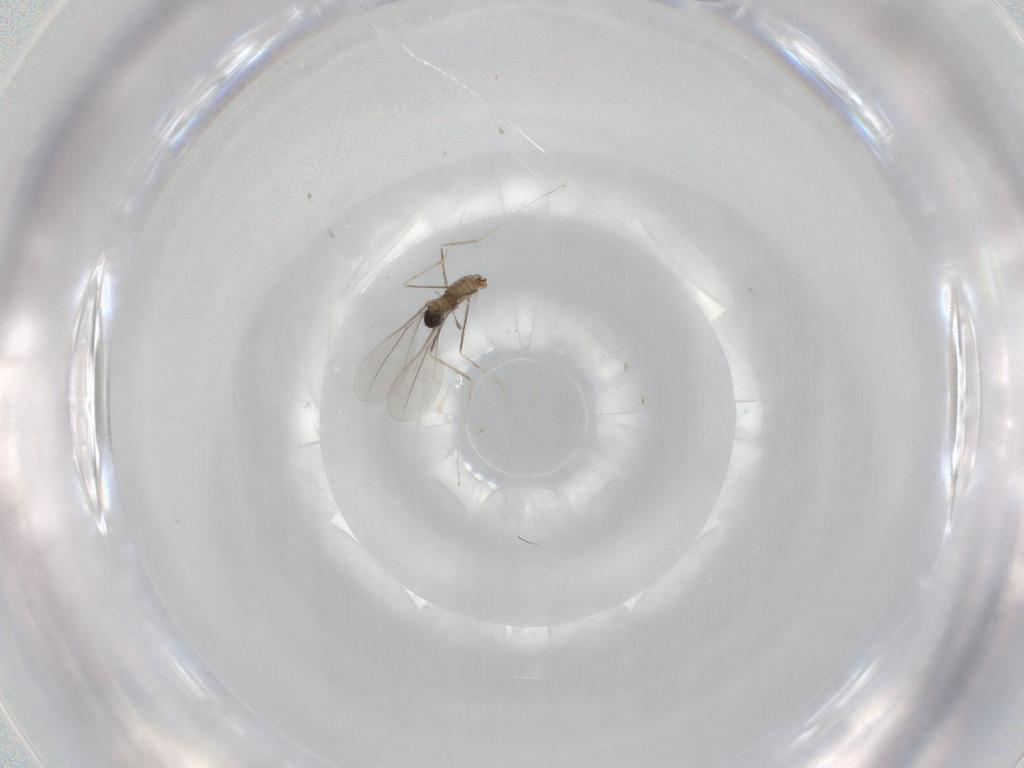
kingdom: Animalia
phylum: Arthropoda
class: Insecta
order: Diptera
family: Cecidomyiidae
